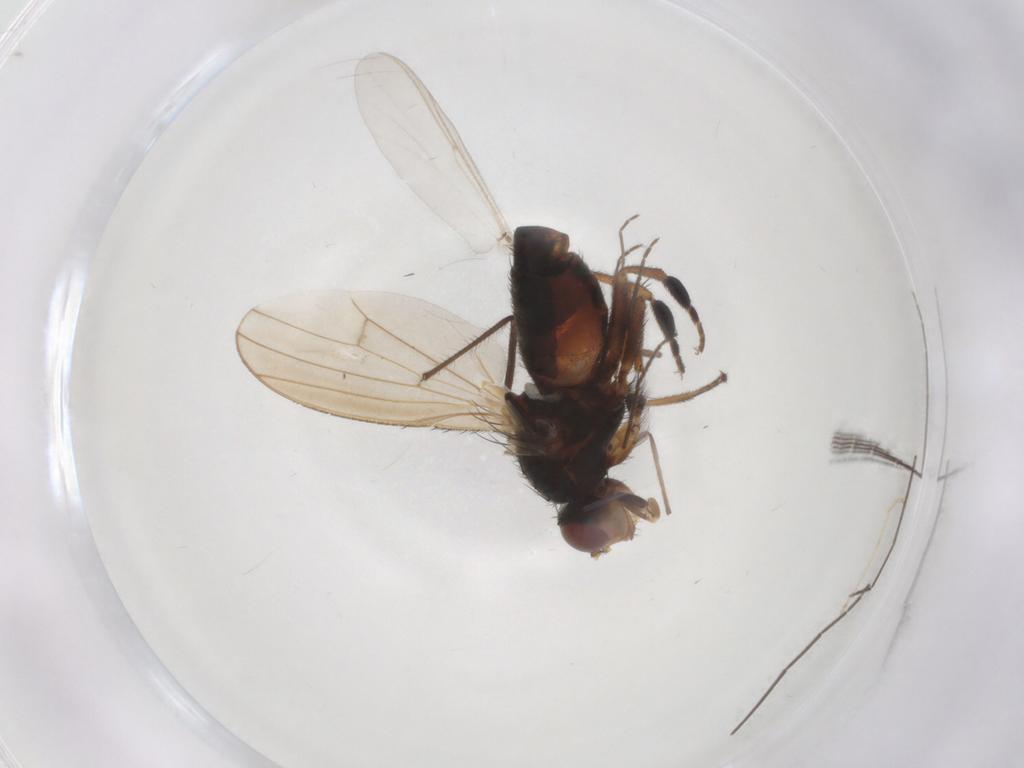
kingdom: Animalia
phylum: Arthropoda
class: Insecta
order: Diptera
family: Chironomidae
